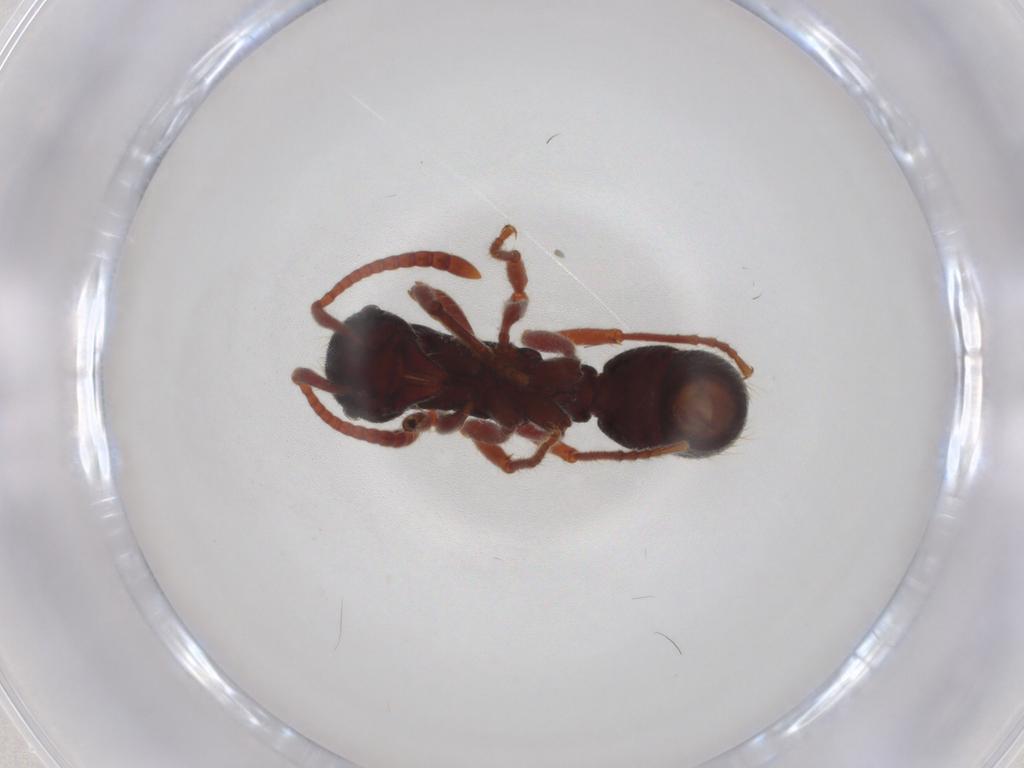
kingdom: Animalia
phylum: Arthropoda
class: Insecta
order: Hymenoptera
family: Formicidae
